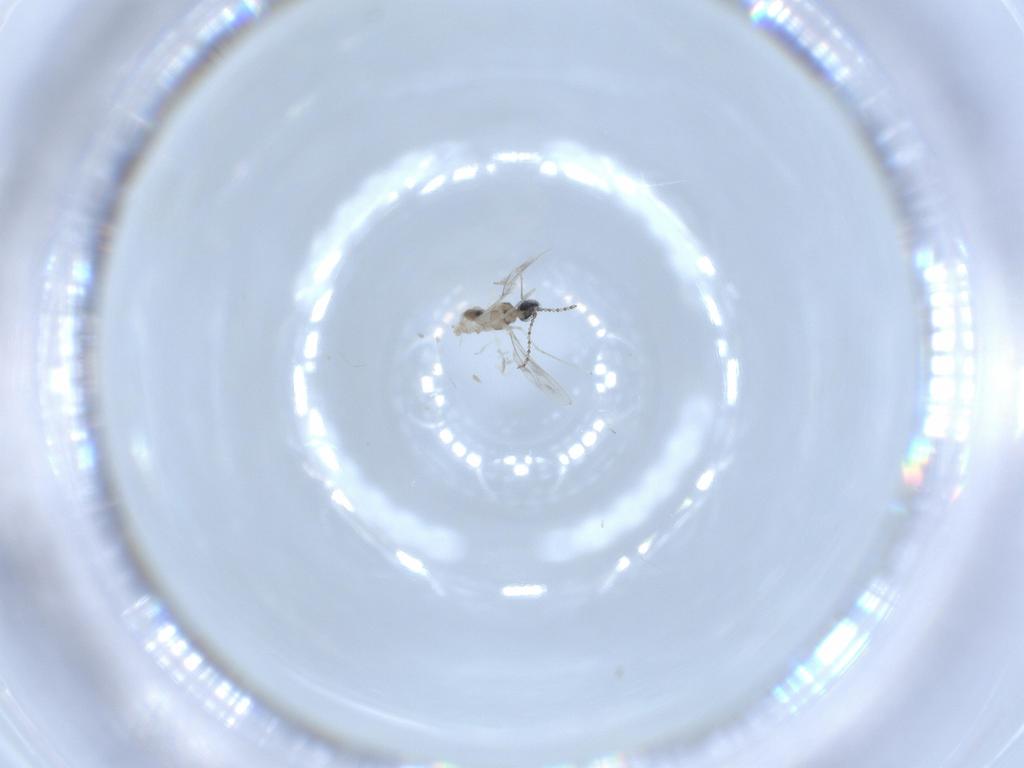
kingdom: Animalia
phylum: Arthropoda
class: Insecta
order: Diptera
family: Cecidomyiidae
